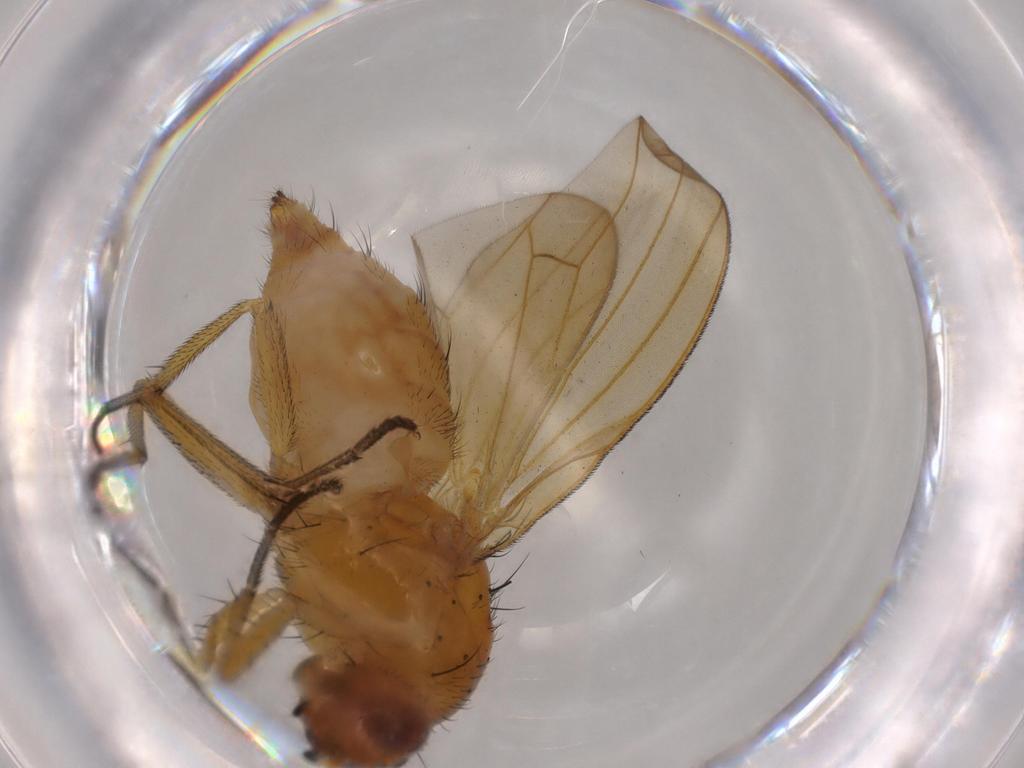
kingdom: Animalia
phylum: Arthropoda
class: Insecta
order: Diptera
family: Lauxaniidae
